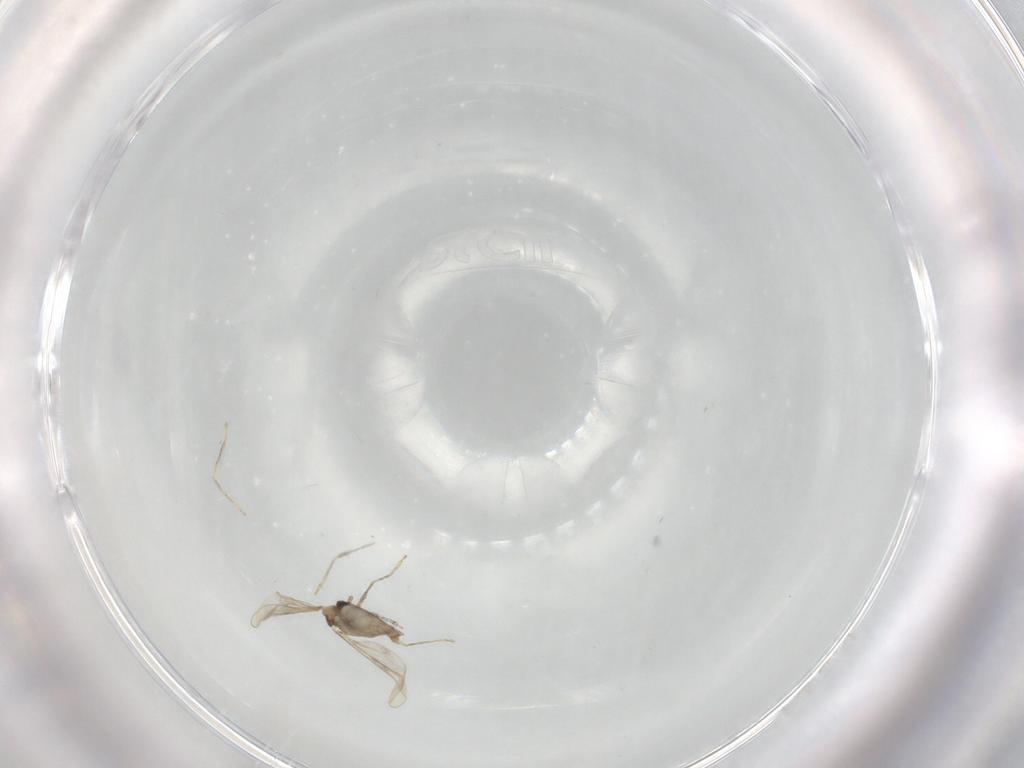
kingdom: Animalia
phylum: Arthropoda
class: Insecta
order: Diptera
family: Cecidomyiidae
